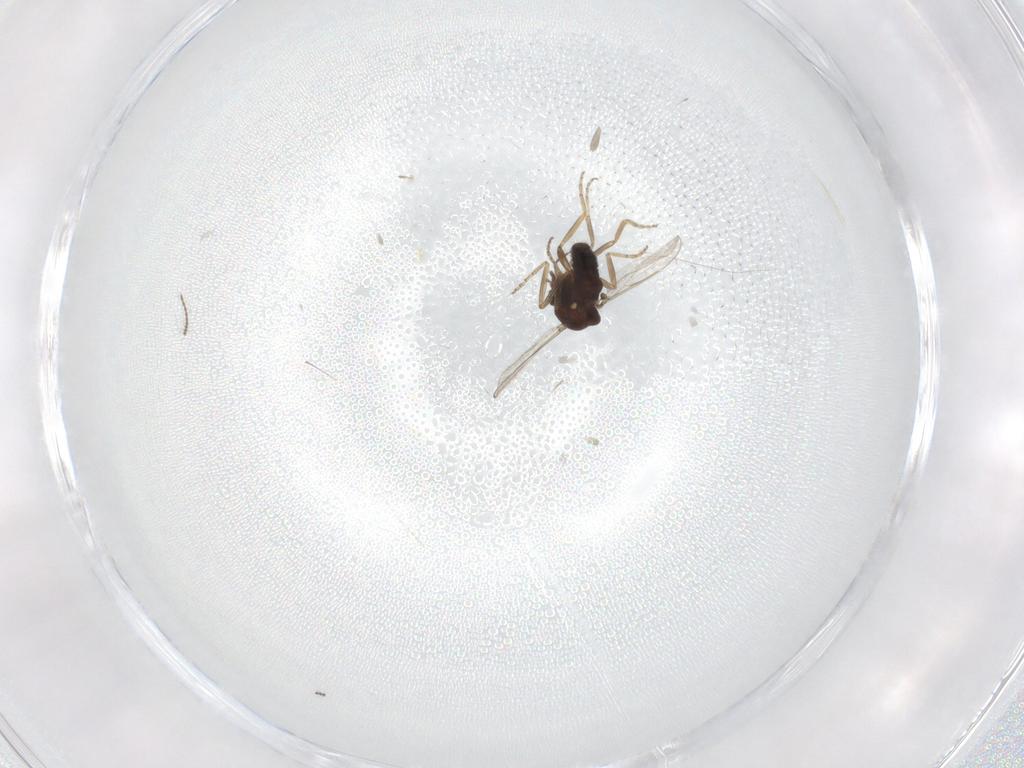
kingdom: Animalia
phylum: Arthropoda
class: Insecta
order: Diptera
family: Ceratopogonidae
